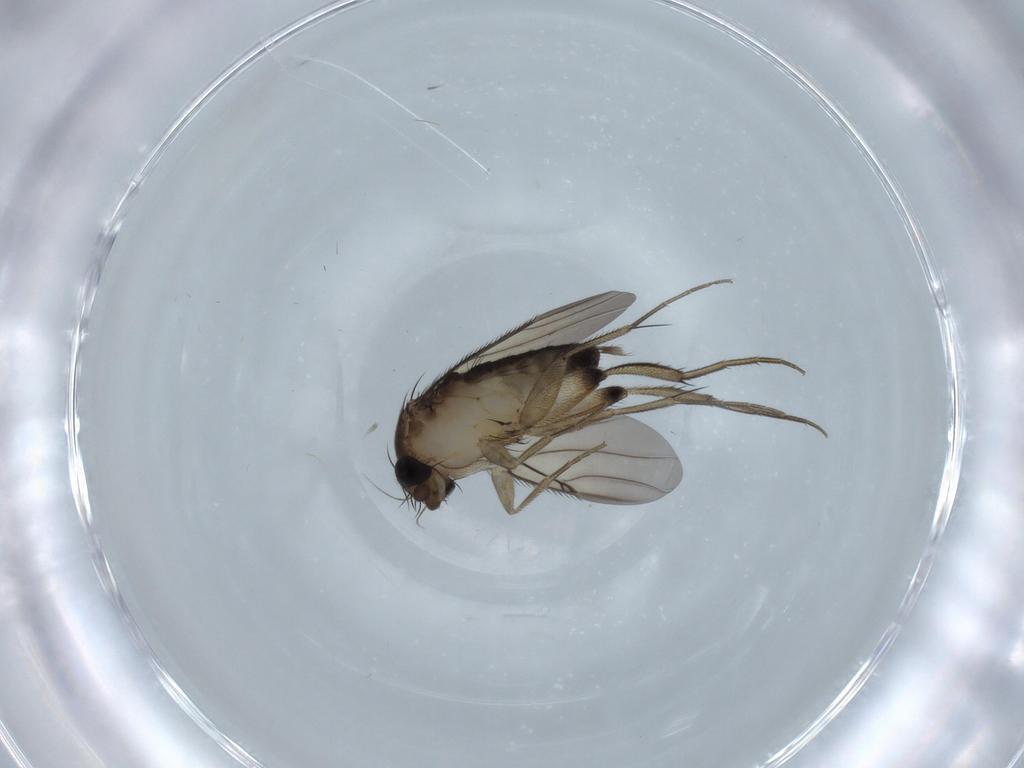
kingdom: Animalia
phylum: Arthropoda
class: Insecta
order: Diptera
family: Phoridae
